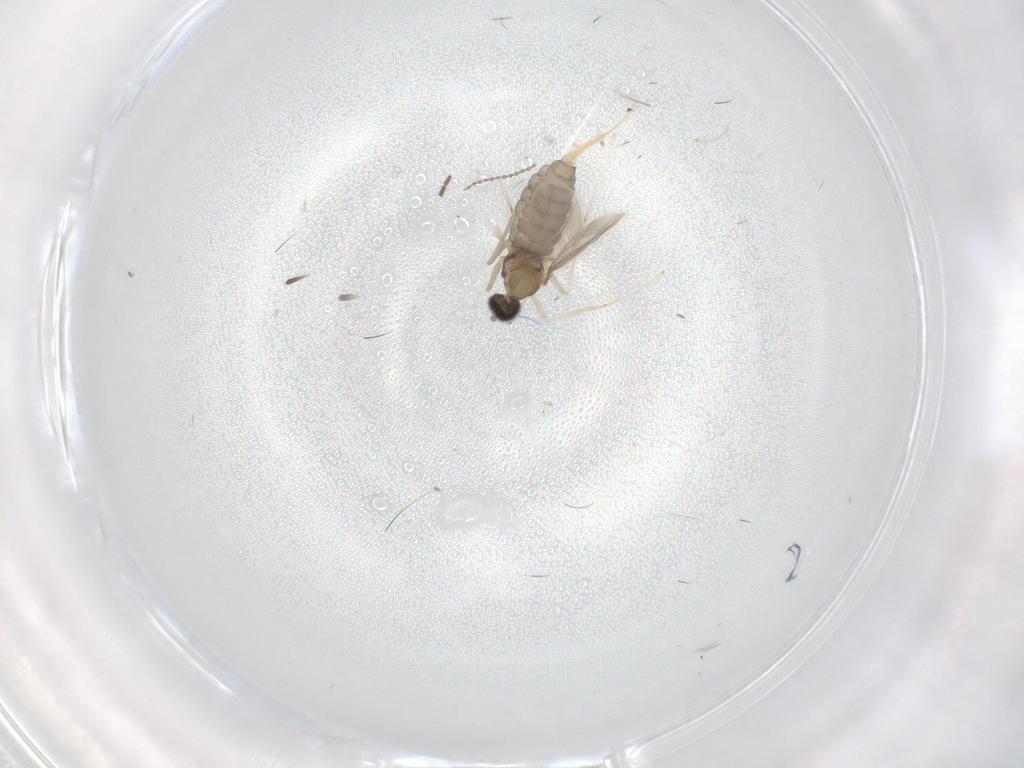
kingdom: Animalia
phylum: Arthropoda
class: Insecta
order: Diptera
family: Cecidomyiidae
